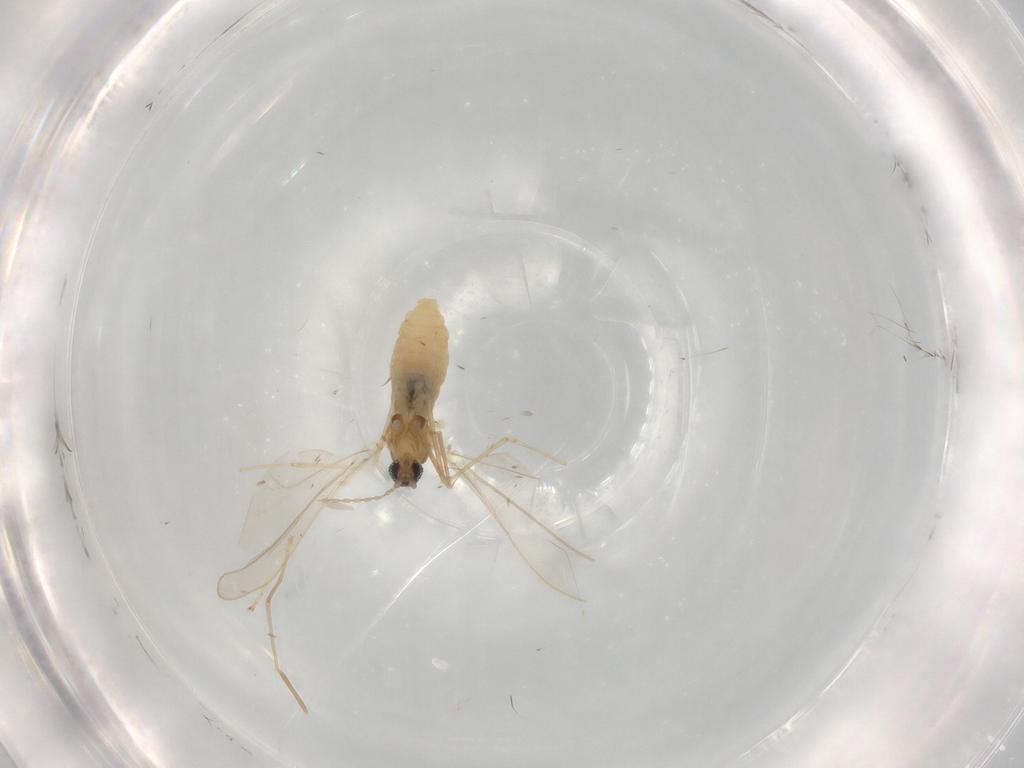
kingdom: Animalia
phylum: Arthropoda
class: Insecta
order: Diptera
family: Cecidomyiidae
